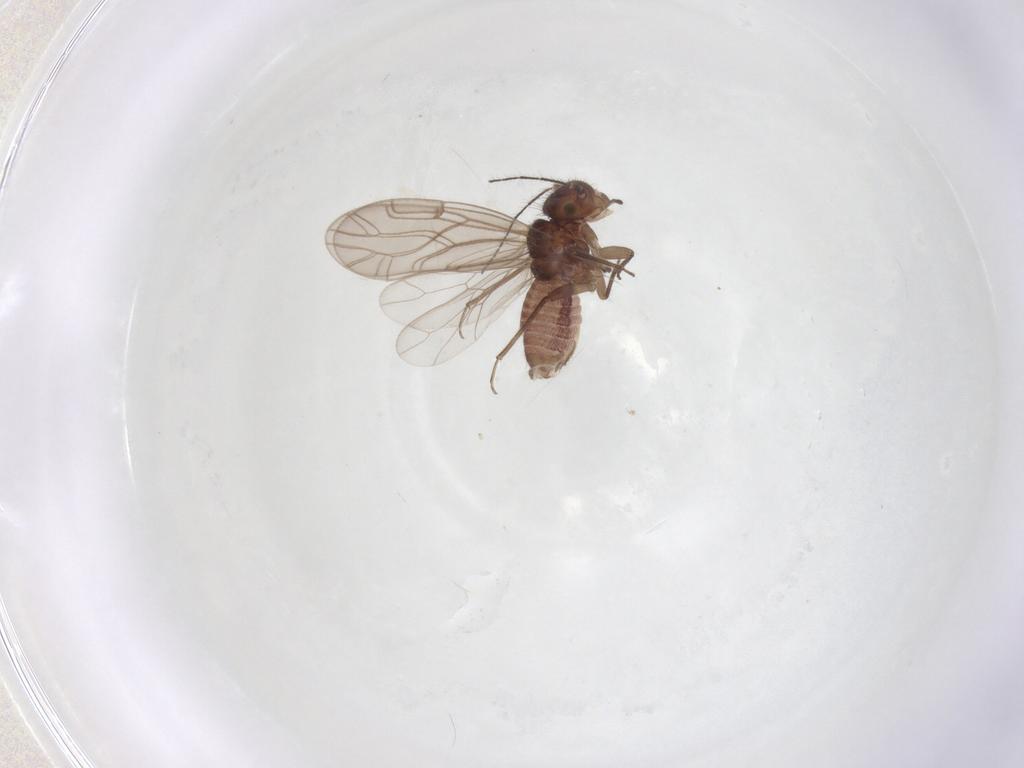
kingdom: Animalia
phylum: Arthropoda
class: Insecta
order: Psocodea
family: Ectopsocidae
